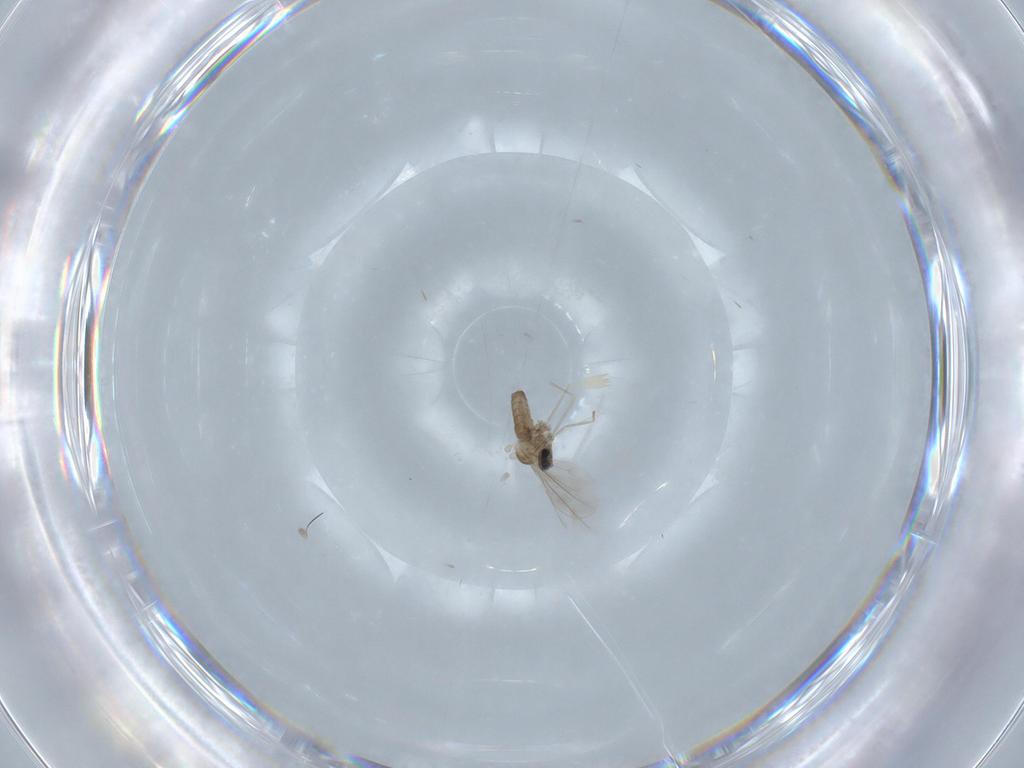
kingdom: Animalia
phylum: Arthropoda
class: Insecta
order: Diptera
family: Cecidomyiidae
